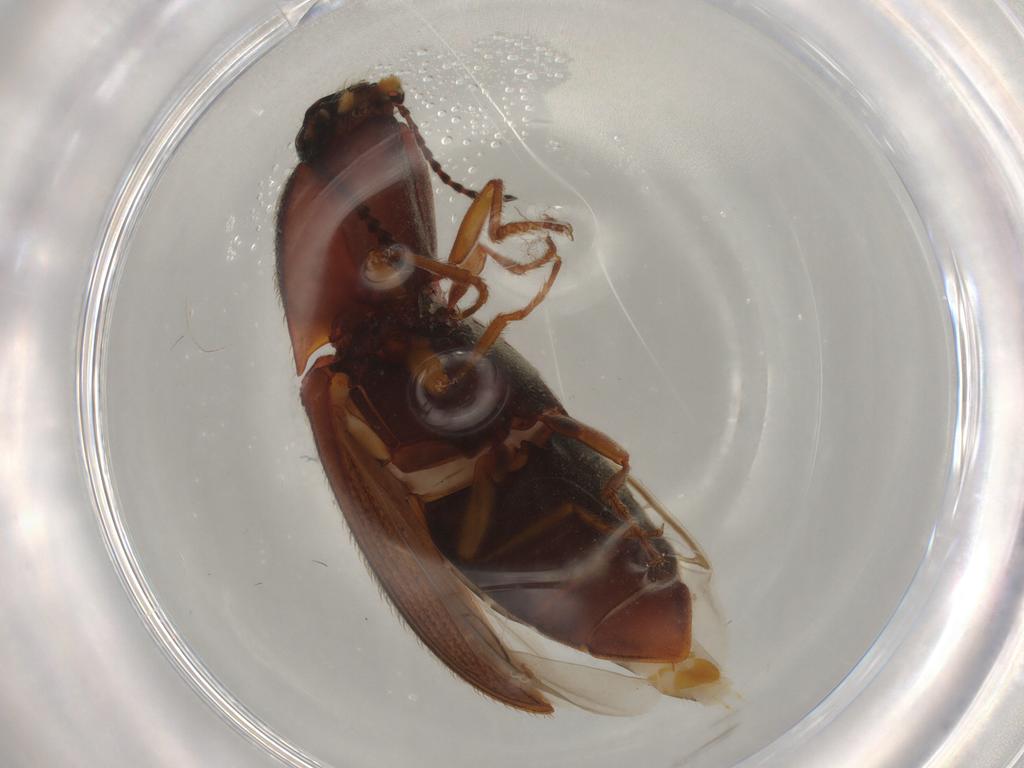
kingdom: Animalia
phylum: Arthropoda
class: Insecta
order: Coleoptera
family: Elateridae
